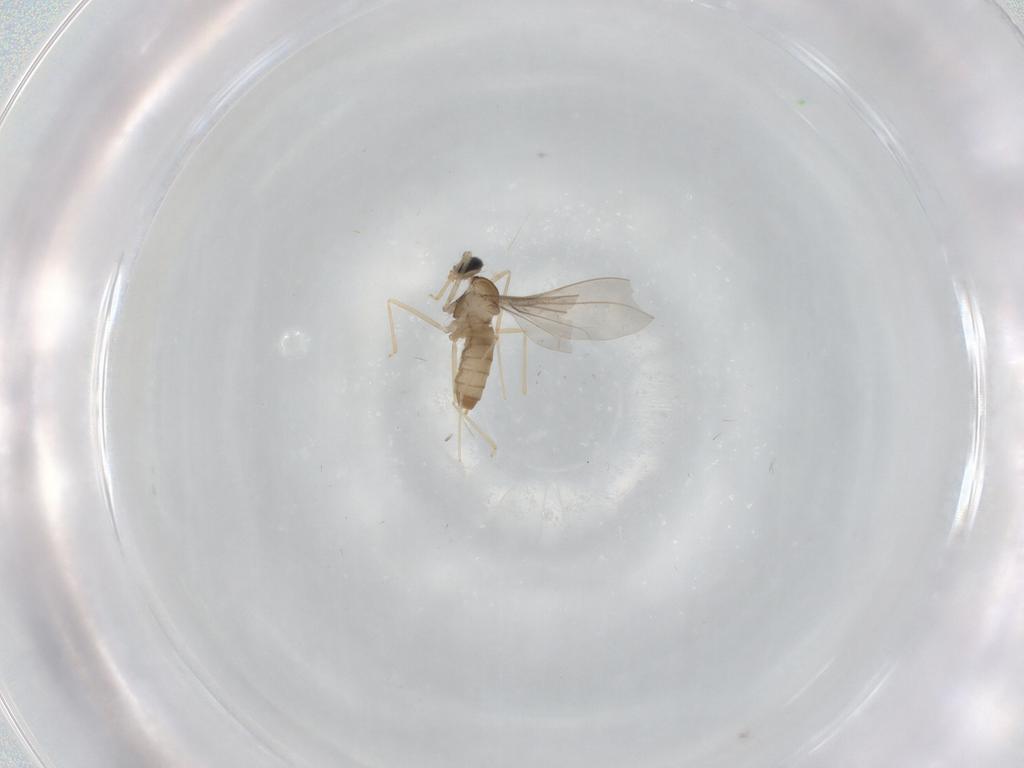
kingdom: Animalia
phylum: Arthropoda
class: Insecta
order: Diptera
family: Cecidomyiidae
